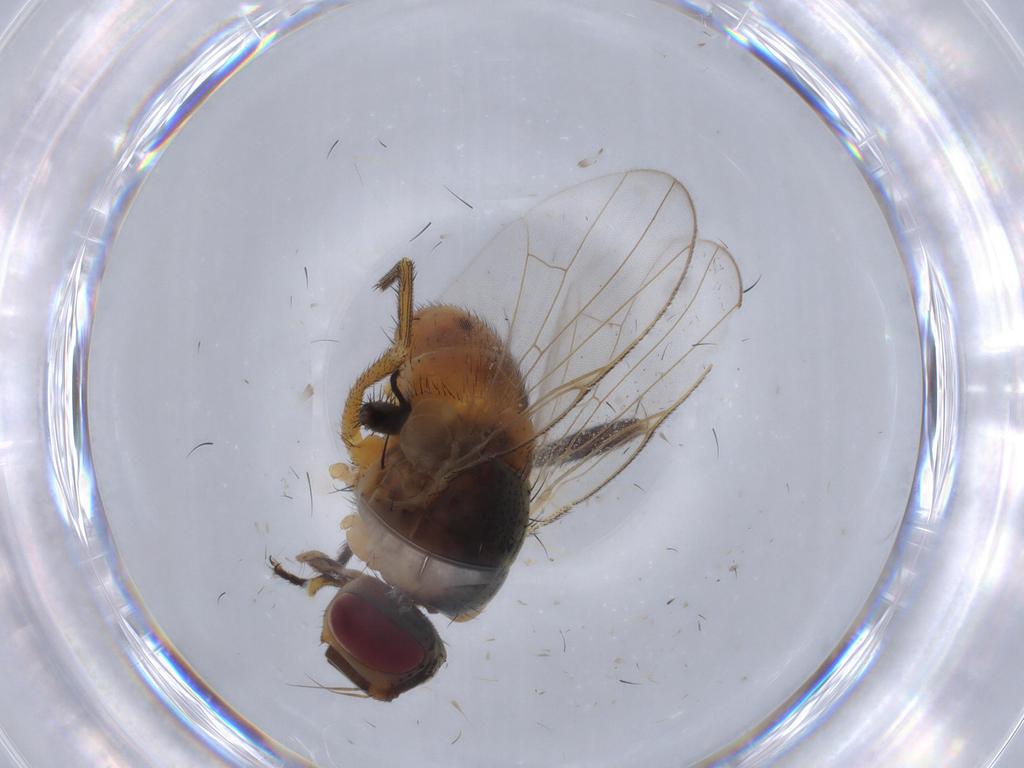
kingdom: Animalia
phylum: Arthropoda
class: Insecta
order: Diptera
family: Muscidae
